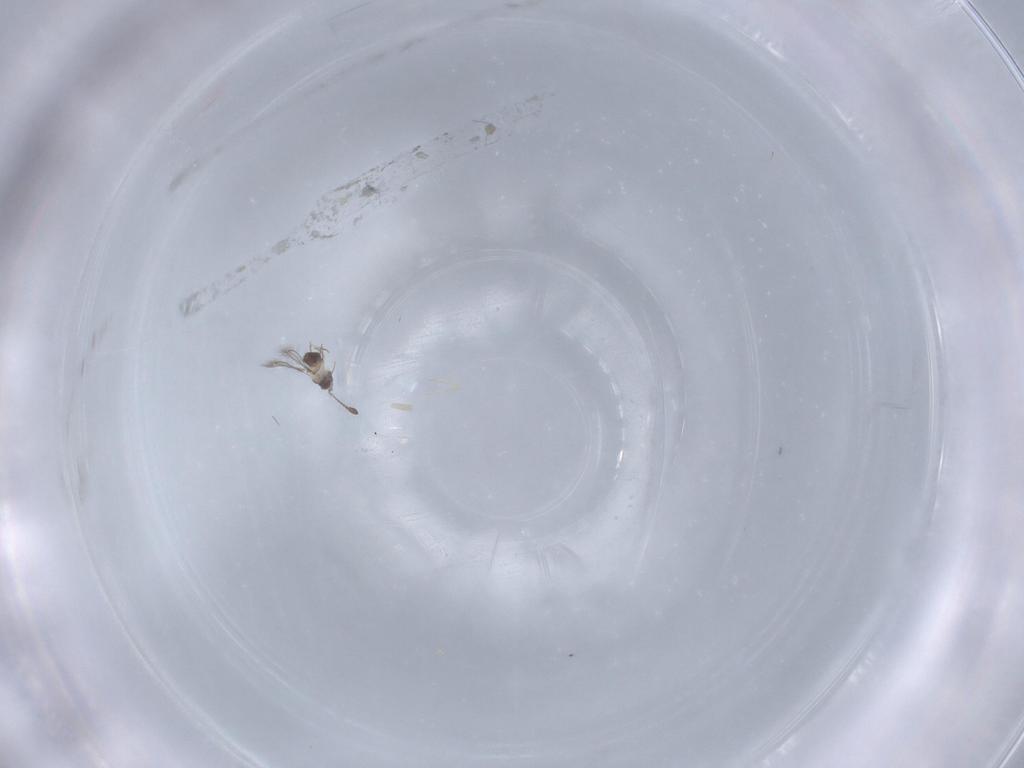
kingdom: Animalia
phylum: Arthropoda
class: Insecta
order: Hymenoptera
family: Mymaridae
